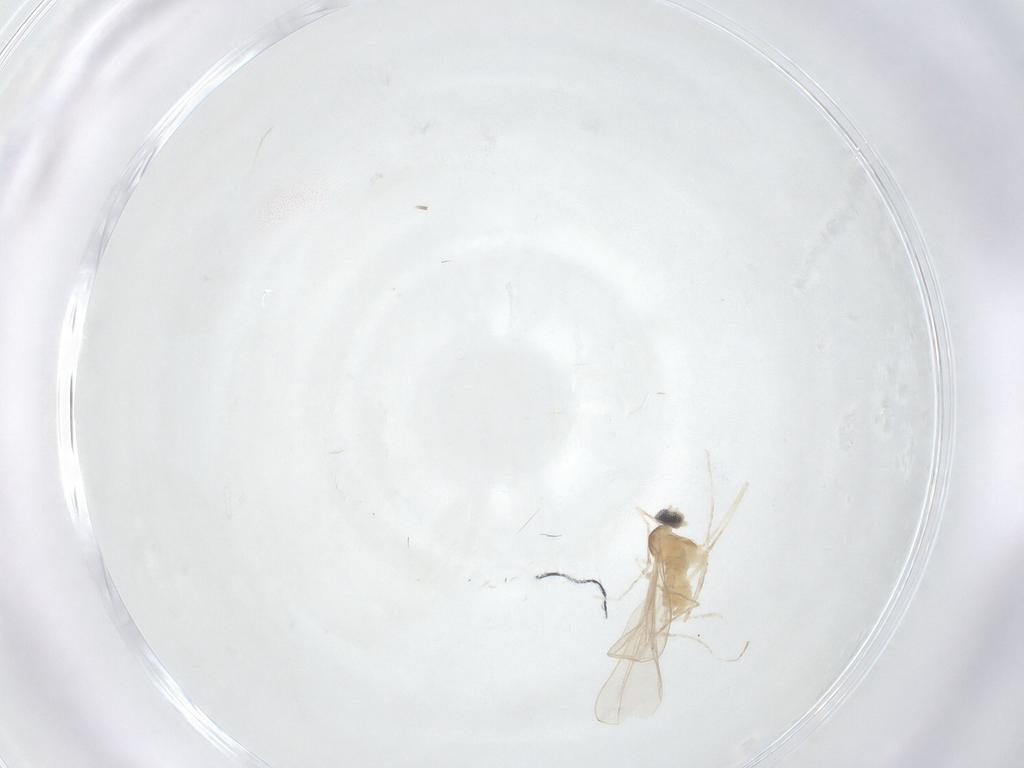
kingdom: Animalia
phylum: Arthropoda
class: Insecta
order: Diptera
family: Cecidomyiidae
